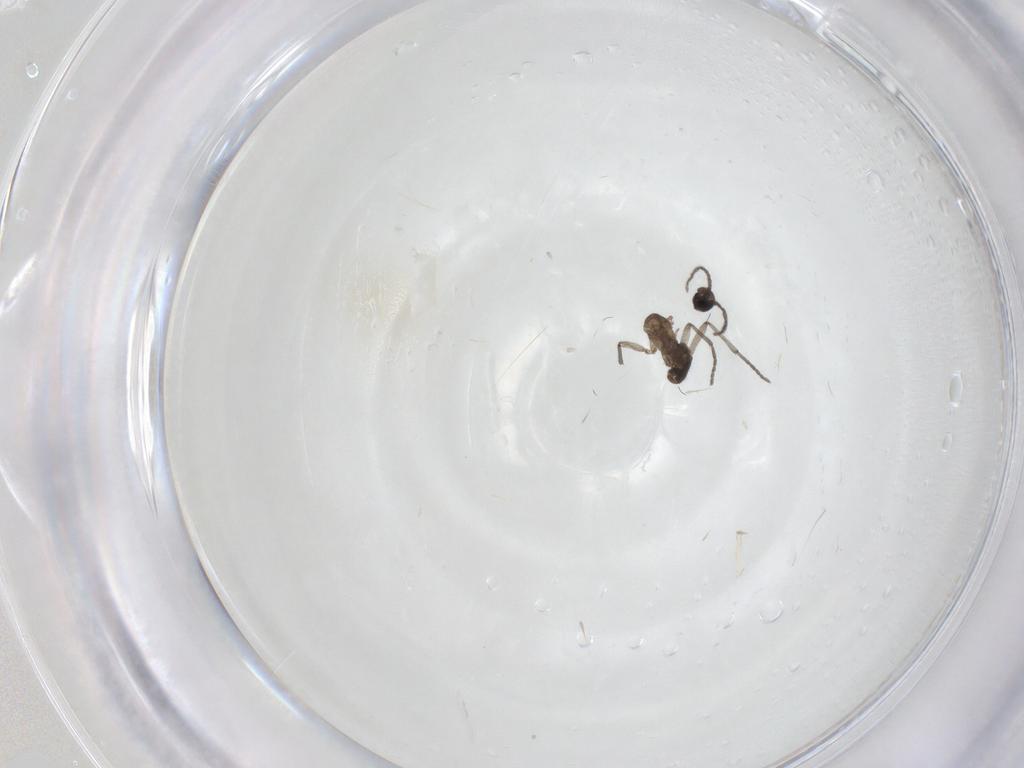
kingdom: Animalia
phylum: Arthropoda
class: Insecta
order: Diptera
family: Sciaridae
